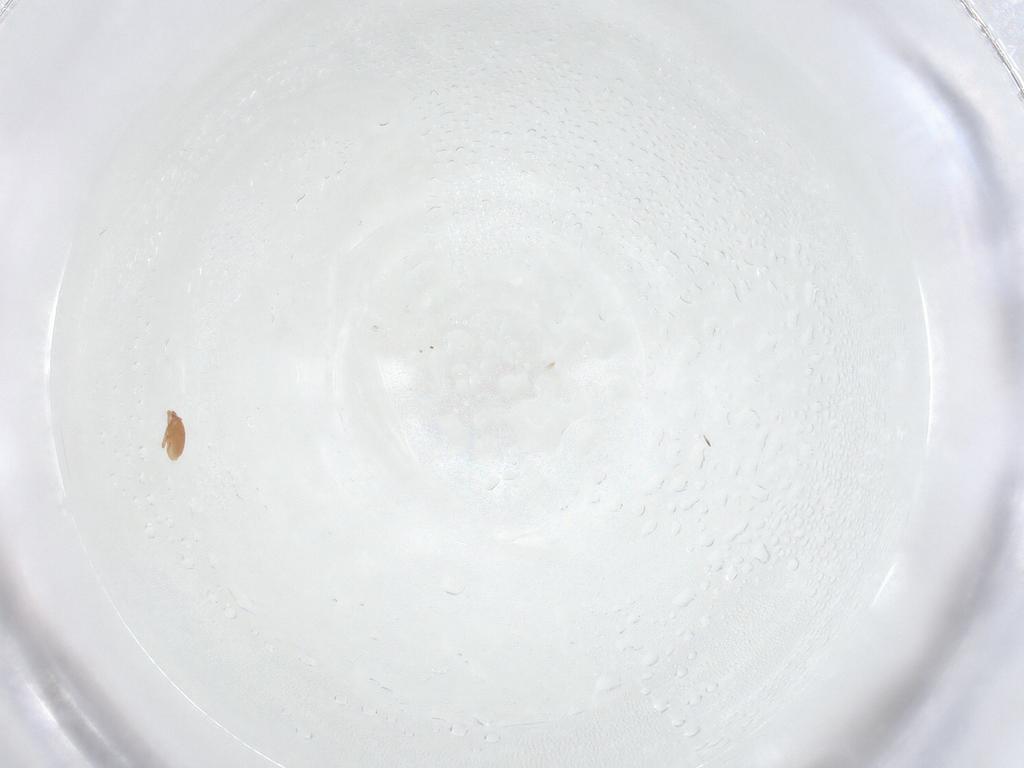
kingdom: Animalia
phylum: Arthropoda
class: Arachnida
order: Trombidiformes
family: Cunaxidae
